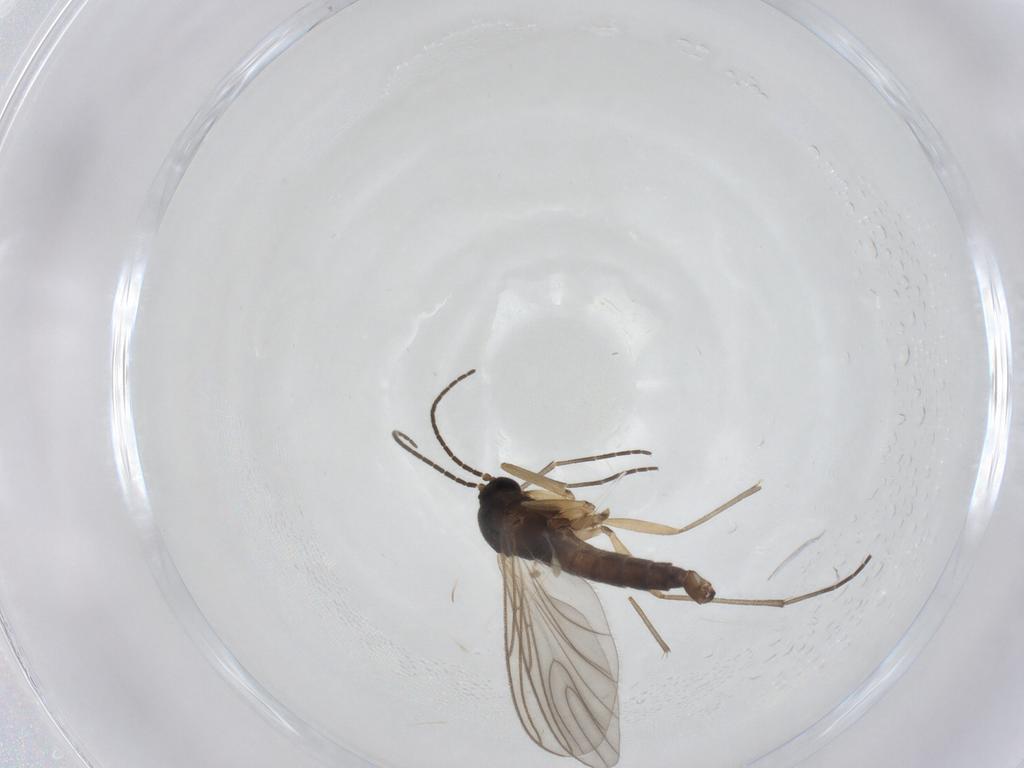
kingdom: Animalia
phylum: Arthropoda
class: Insecta
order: Diptera
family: Sciaridae
